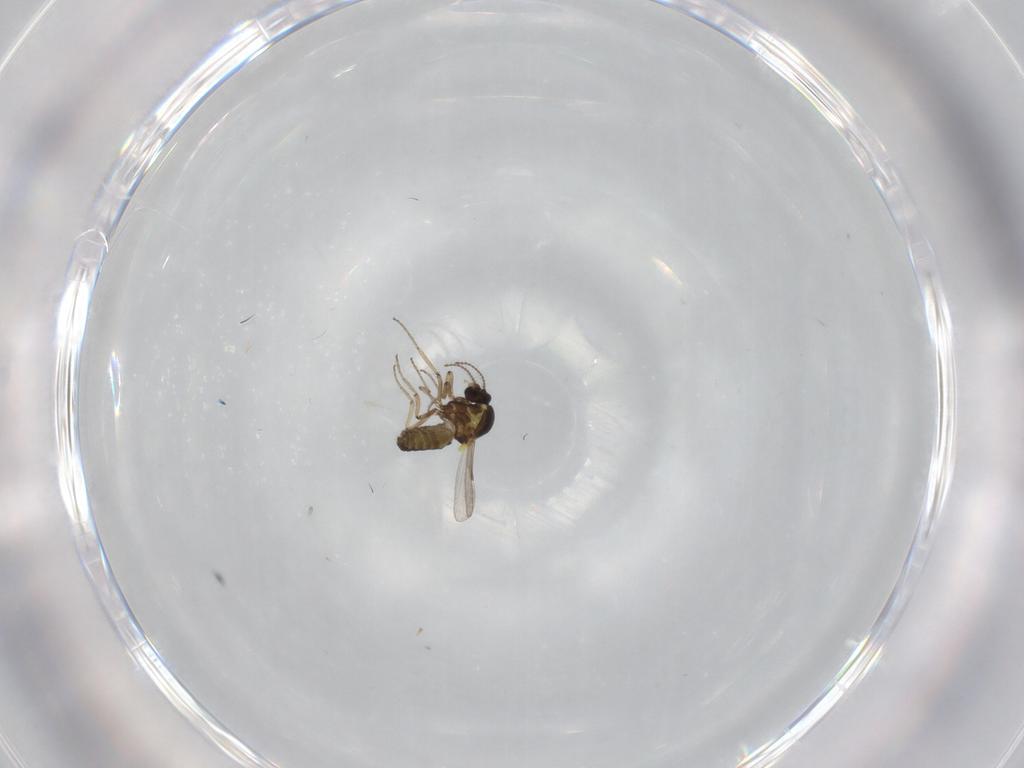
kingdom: Animalia
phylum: Arthropoda
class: Insecta
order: Diptera
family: Ceratopogonidae
